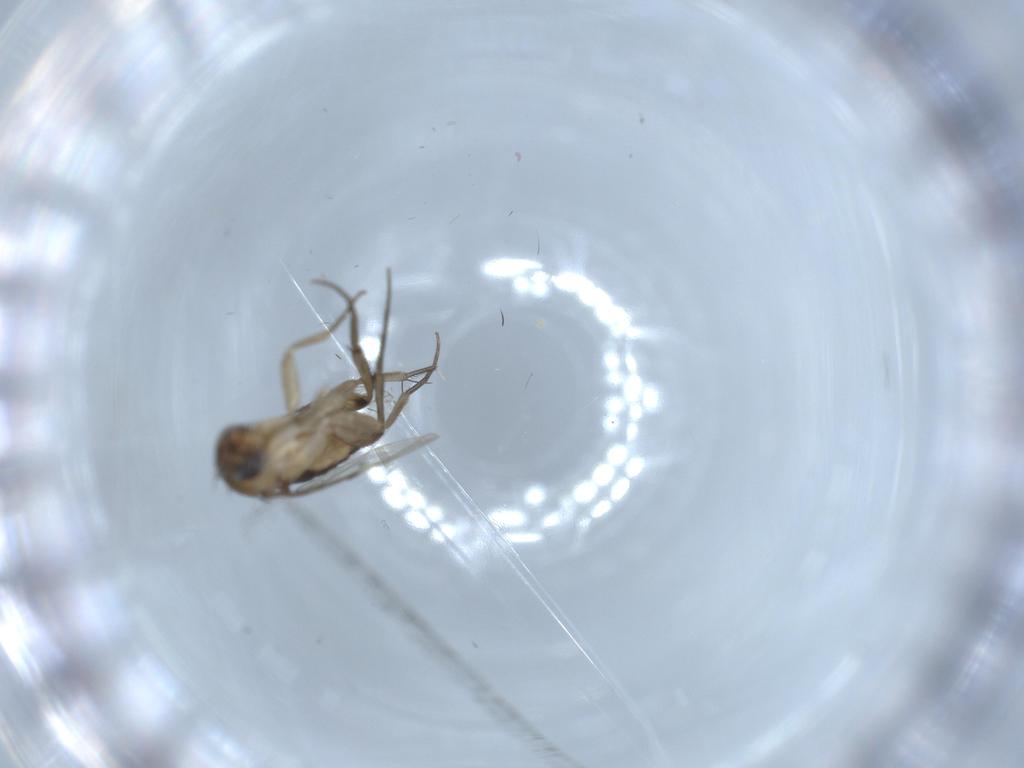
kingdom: Animalia
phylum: Arthropoda
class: Insecta
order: Diptera
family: Phoridae
